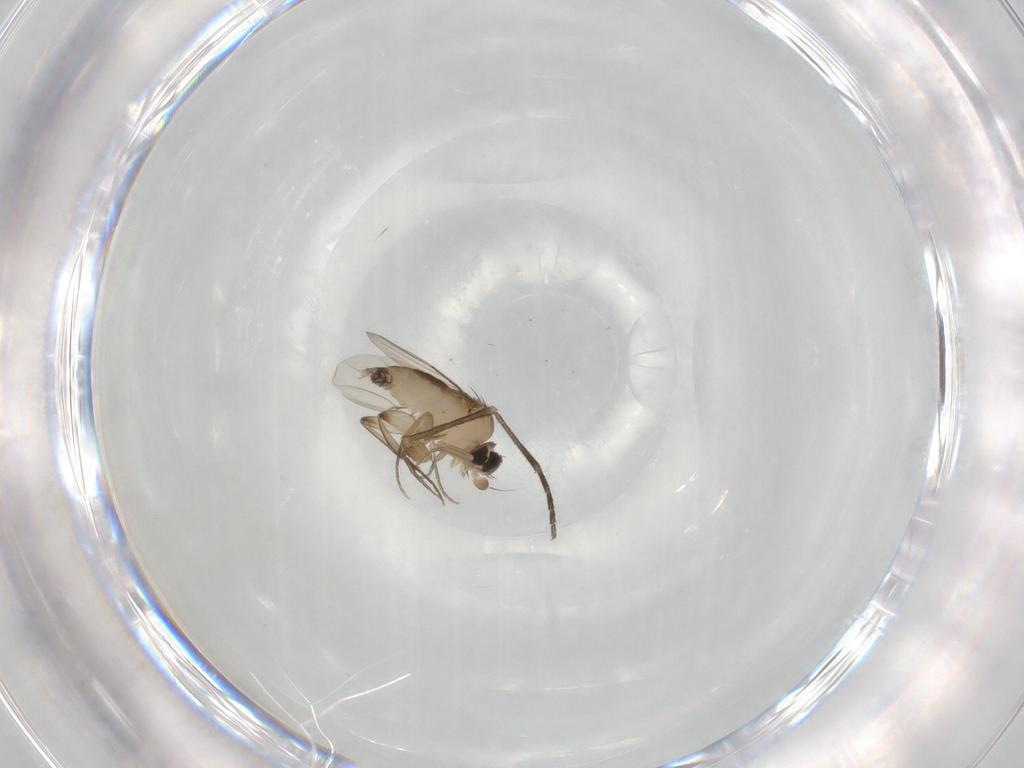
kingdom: Animalia
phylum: Arthropoda
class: Insecta
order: Diptera
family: Phoridae
